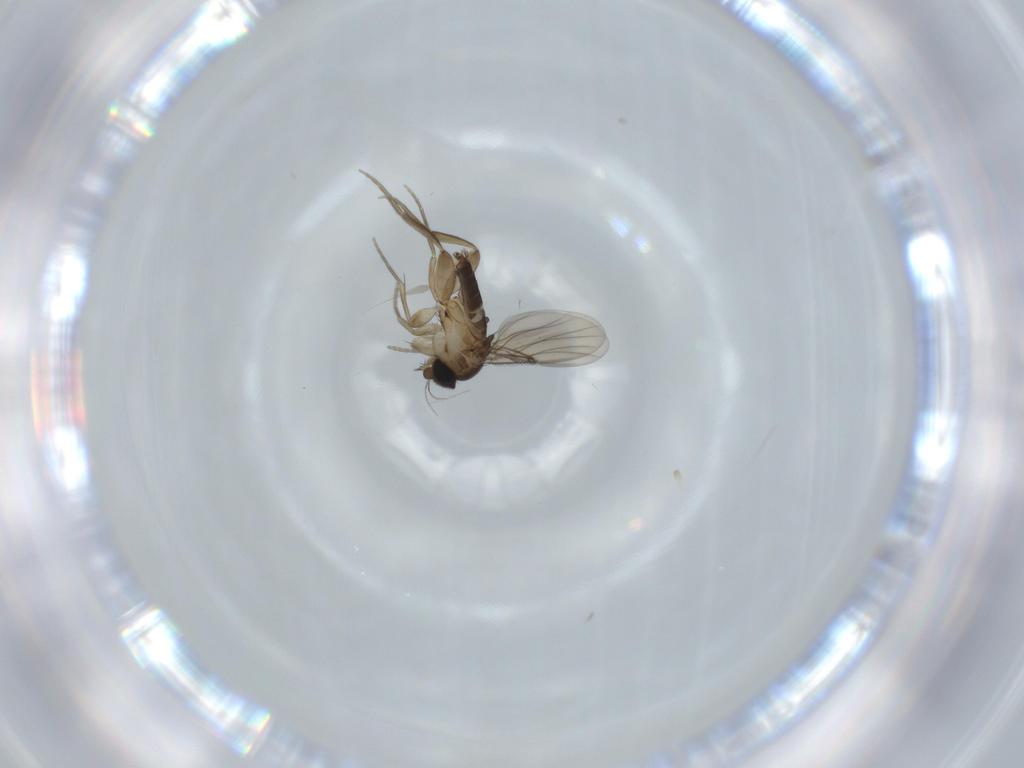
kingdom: Animalia
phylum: Arthropoda
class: Insecta
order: Diptera
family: Phoridae
